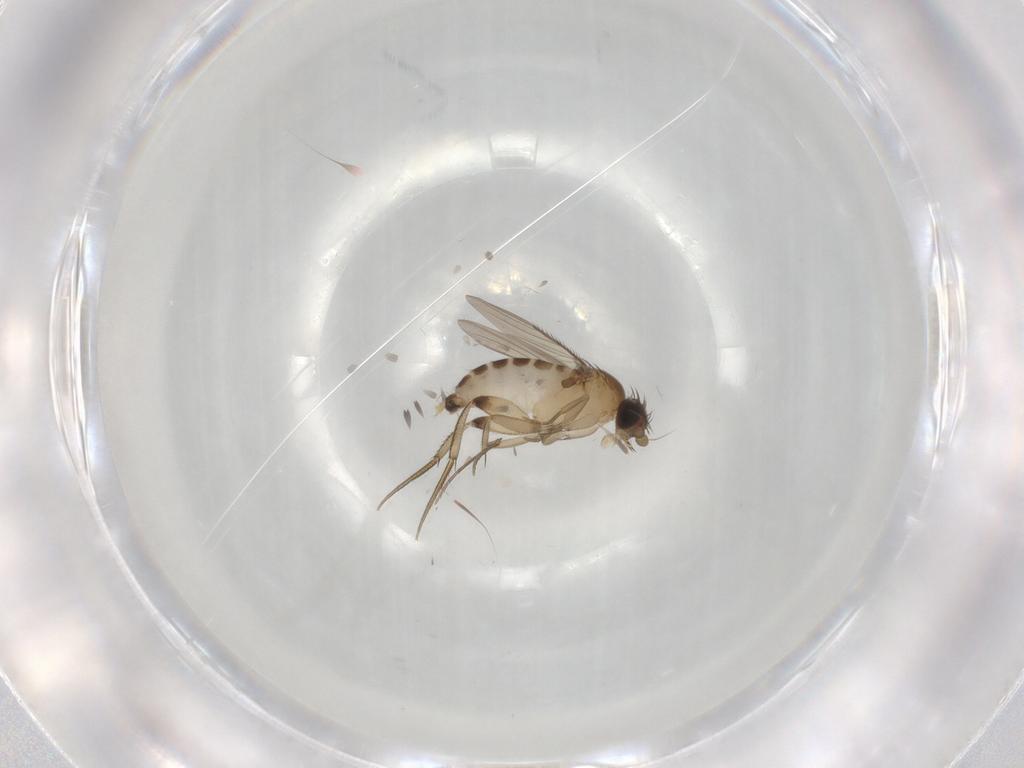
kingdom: Animalia
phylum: Arthropoda
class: Insecta
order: Diptera
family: Phoridae
